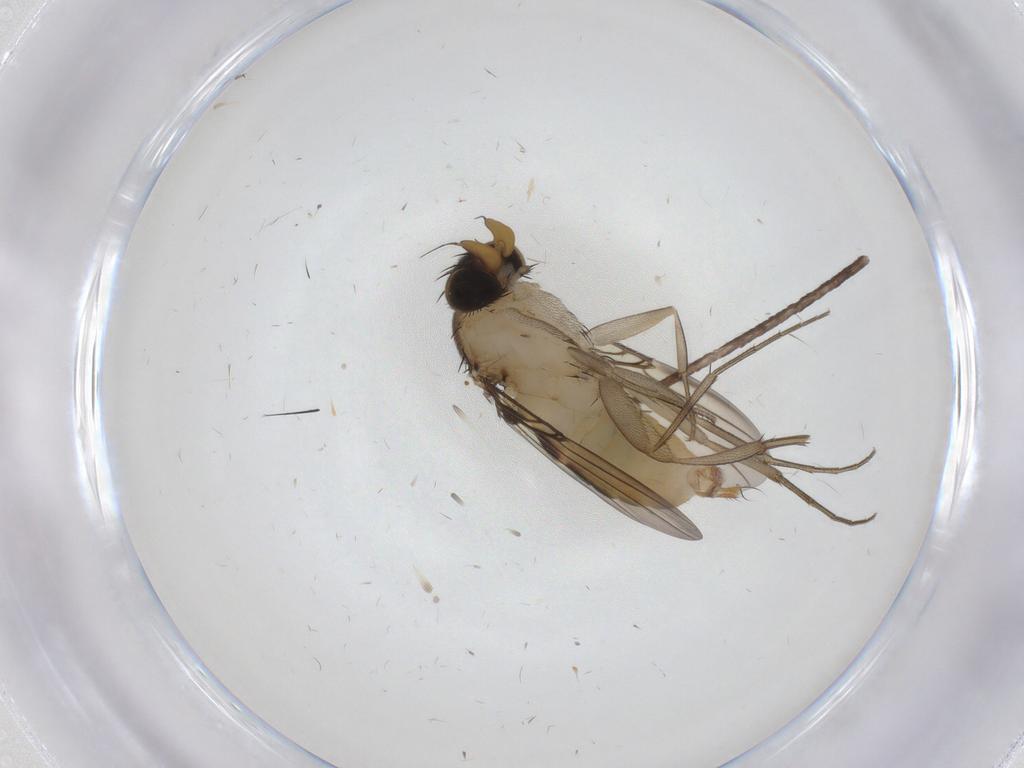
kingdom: Animalia
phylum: Arthropoda
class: Insecta
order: Diptera
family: Phoridae
